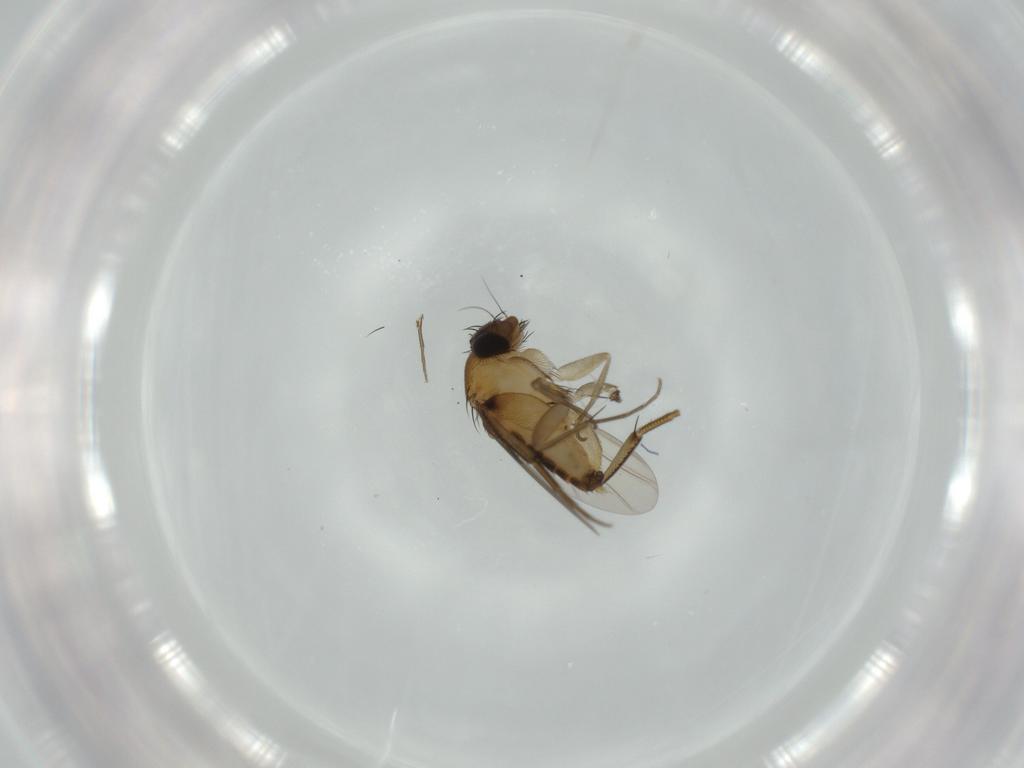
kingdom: Animalia
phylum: Arthropoda
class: Insecta
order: Diptera
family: Phoridae
